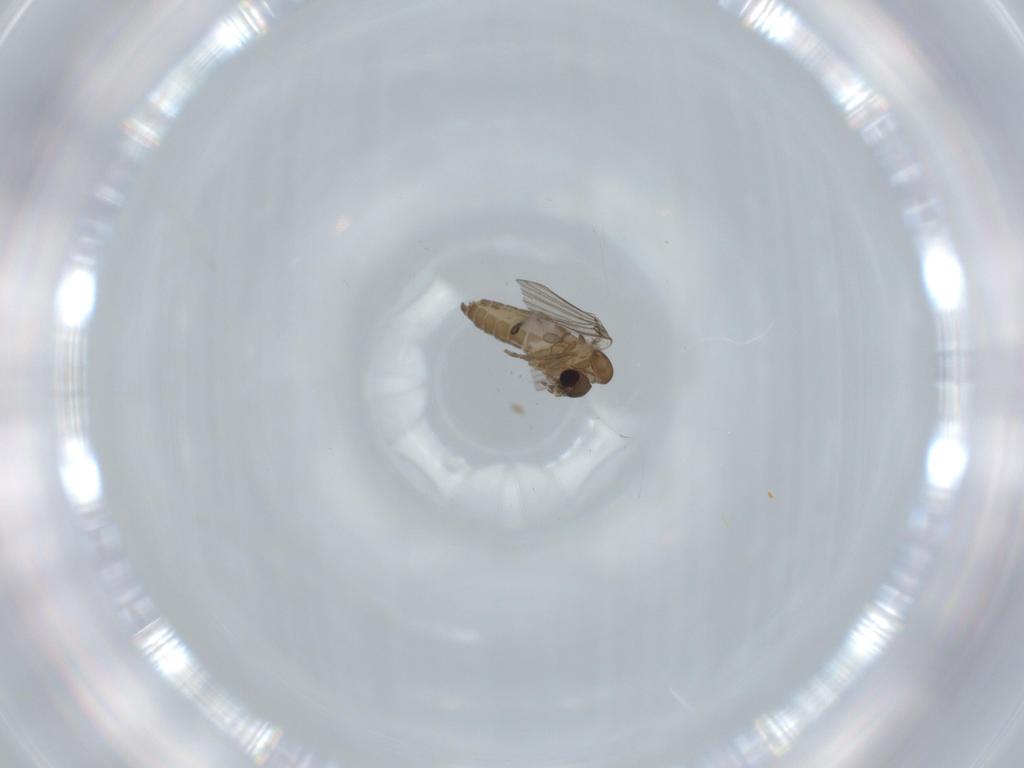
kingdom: Animalia
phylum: Arthropoda
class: Insecta
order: Diptera
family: Psychodidae
